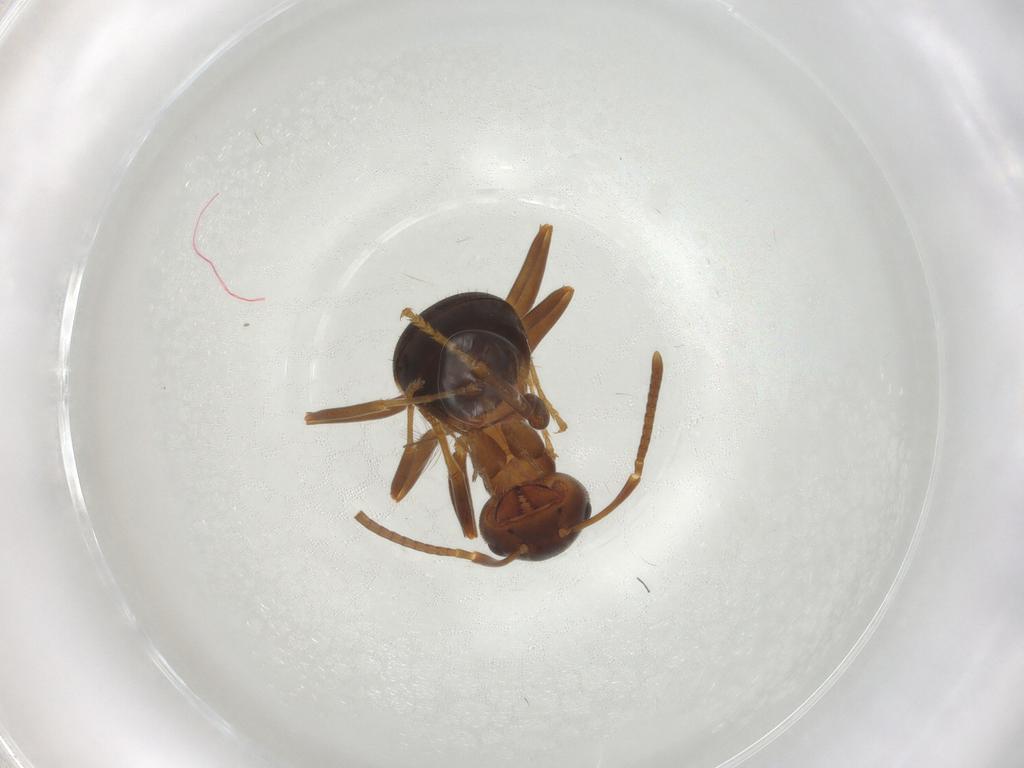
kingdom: Animalia
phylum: Arthropoda
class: Insecta
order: Hymenoptera
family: Formicidae
